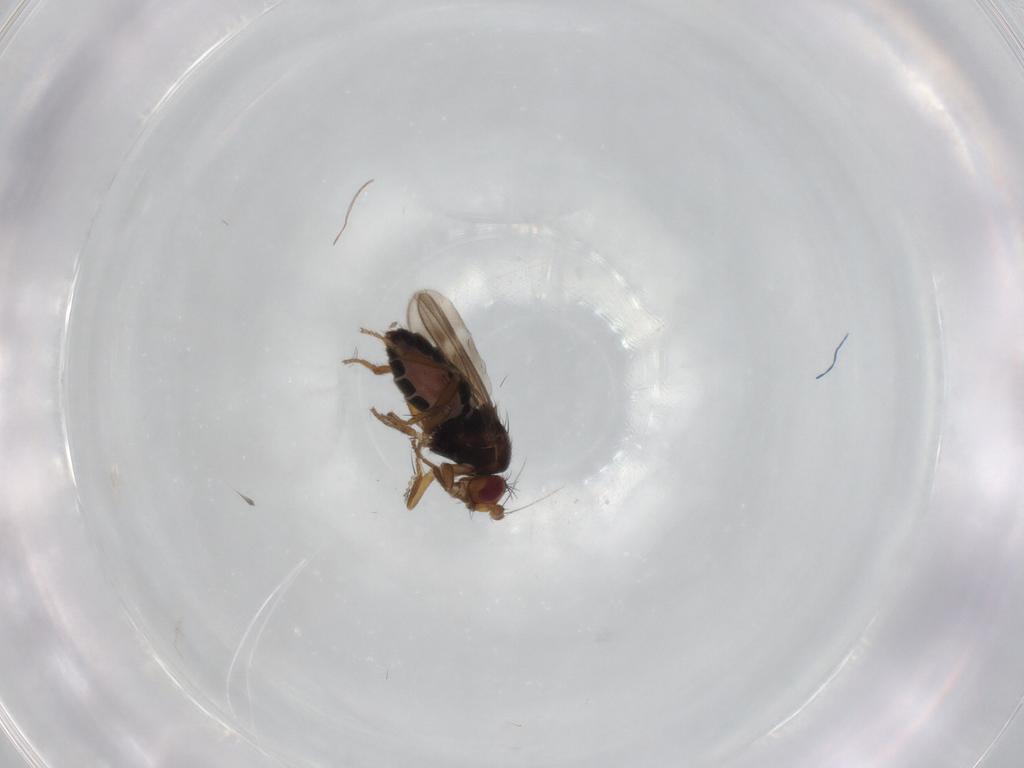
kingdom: Animalia
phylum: Arthropoda
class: Insecta
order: Diptera
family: Sphaeroceridae
